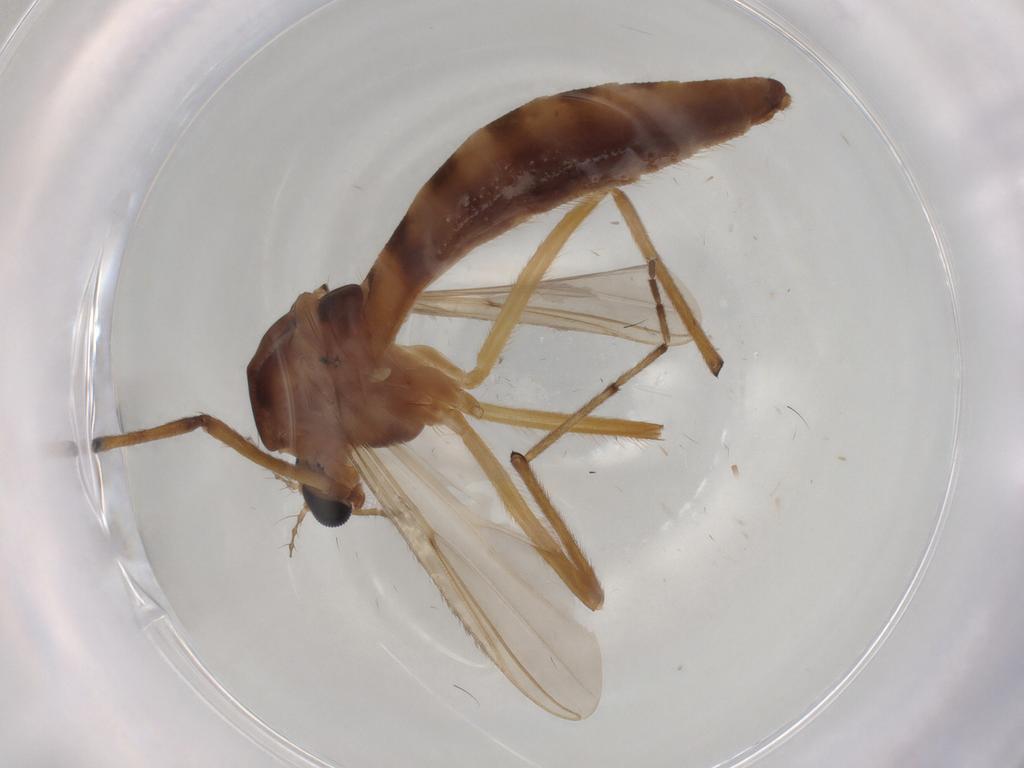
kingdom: Animalia
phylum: Arthropoda
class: Insecta
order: Diptera
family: Muscidae
